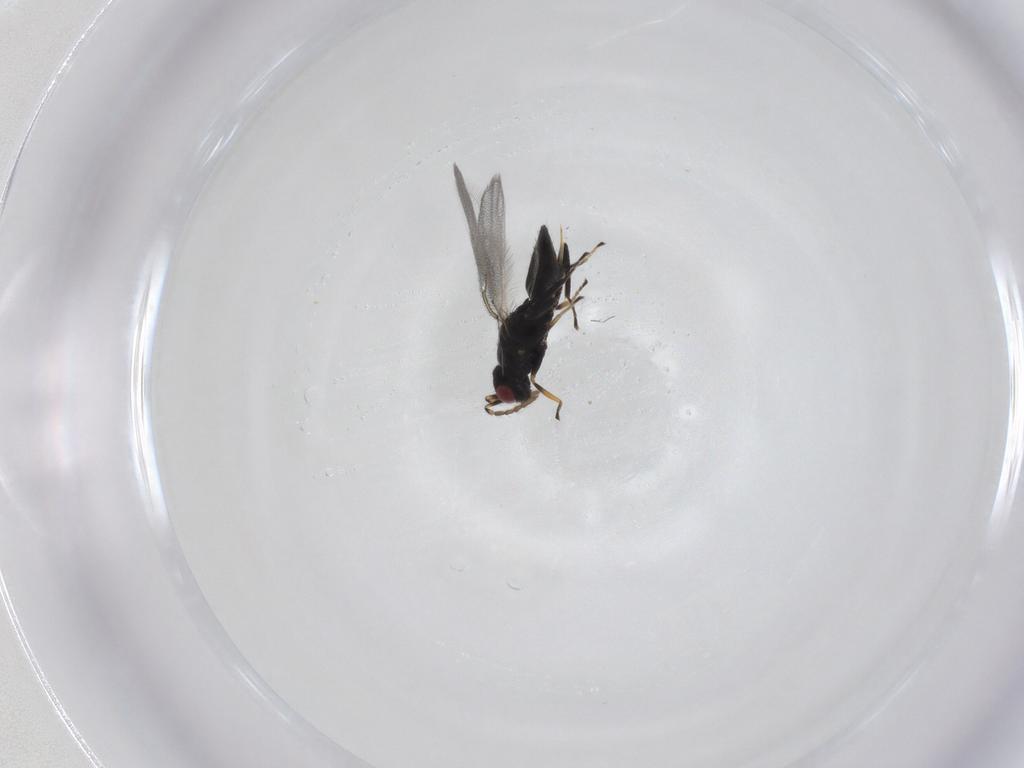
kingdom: Animalia
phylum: Arthropoda
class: Insecta
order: Hymenoptera
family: Eulophidae
